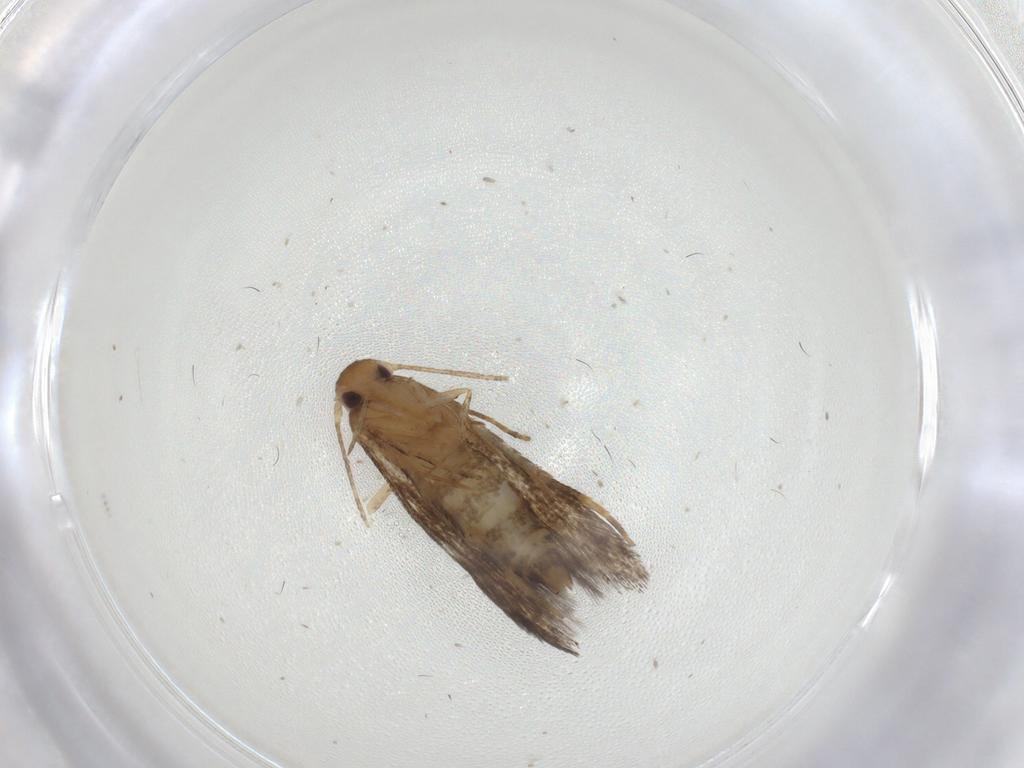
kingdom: Animalia
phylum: Arthropoda
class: Insecta
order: Lepidoptera
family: Momphidae
